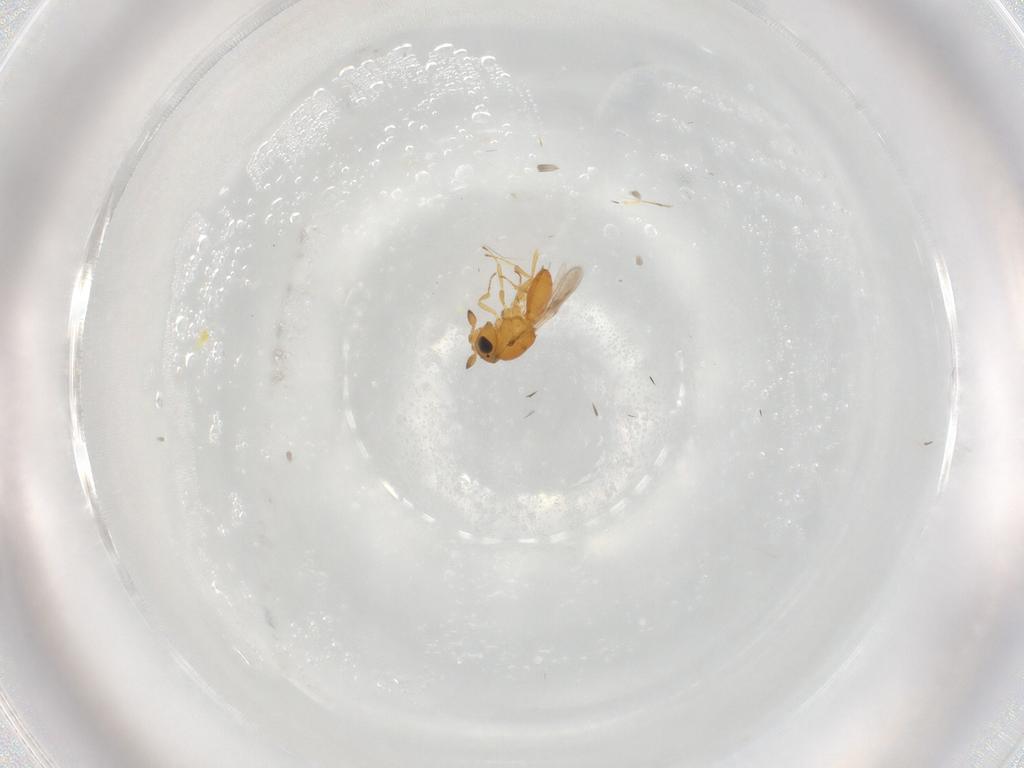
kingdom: Animalia
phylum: Arthropoda
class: Insecta
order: Hymenoptera
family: Scelionidae
